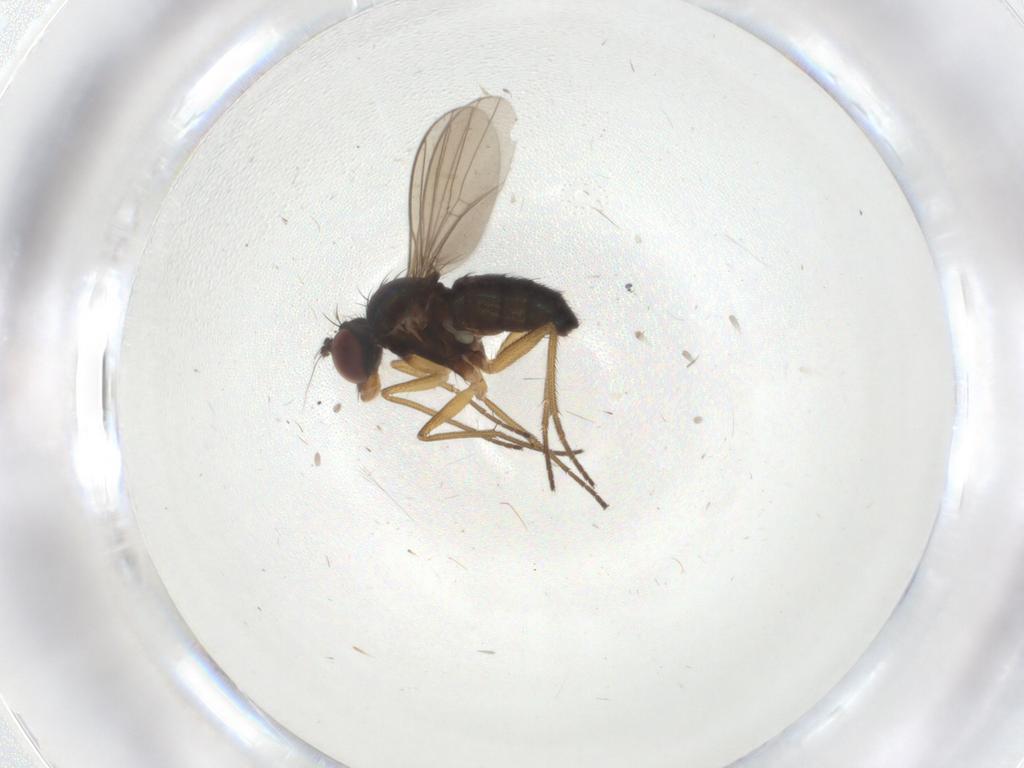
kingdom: Animalia
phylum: Arthropoda
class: Insecta
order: Diptera
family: Dolichopodidae
